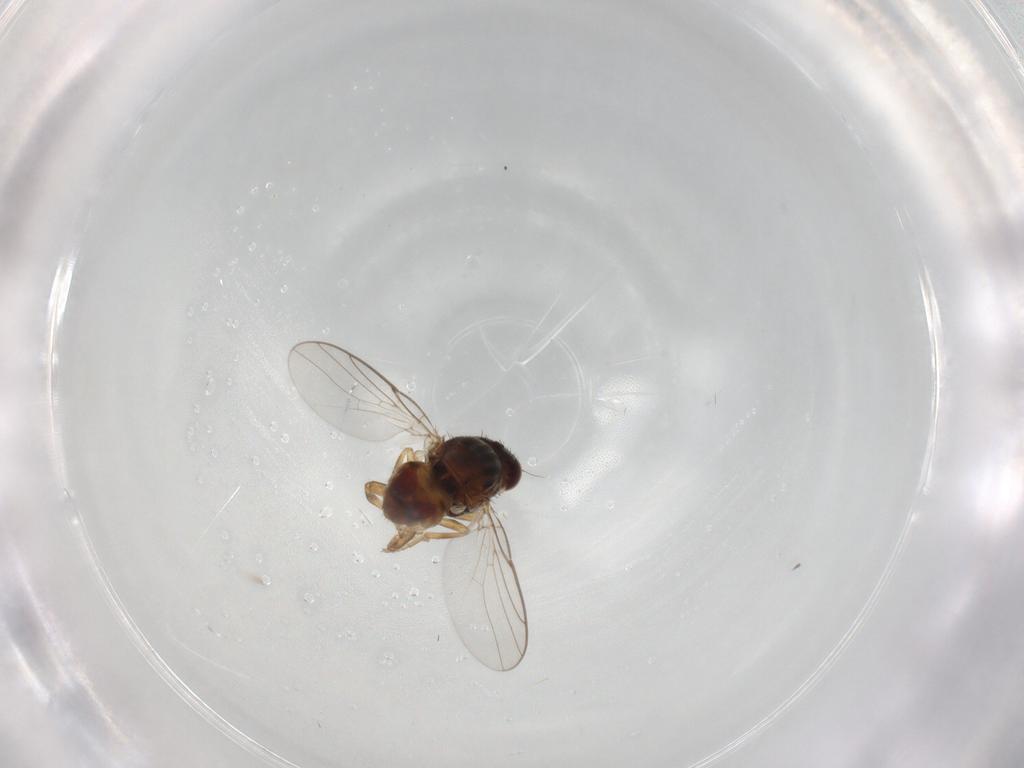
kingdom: Animalia
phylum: Arthropoda
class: Insecta
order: Diptera
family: Chloropidae
